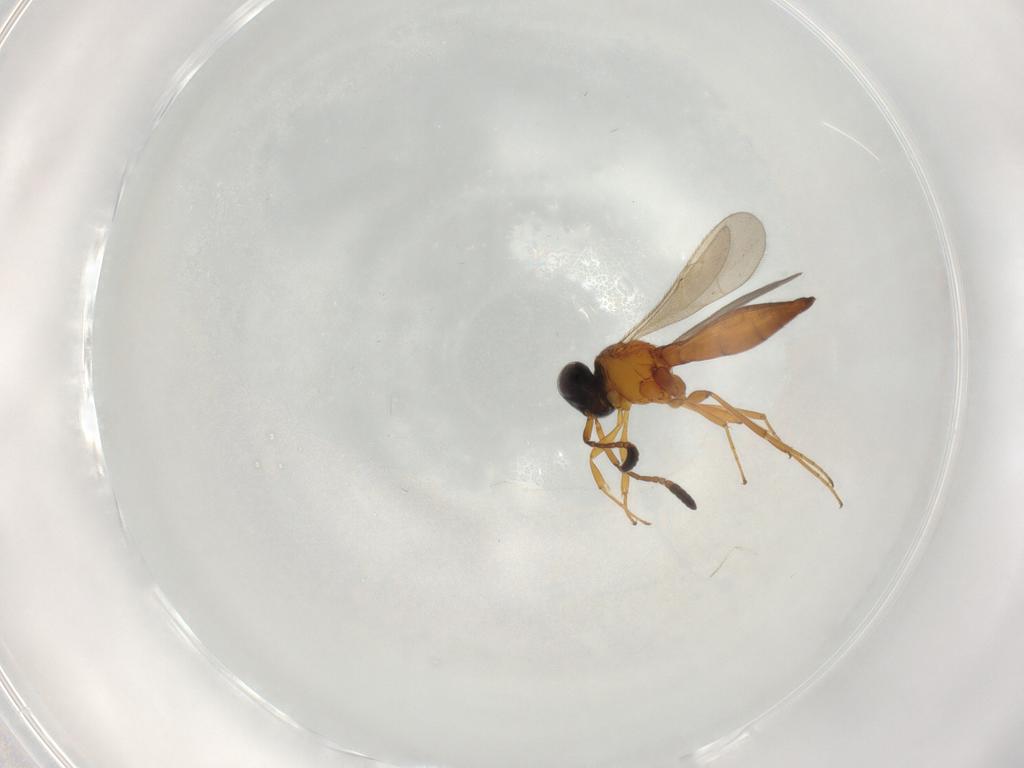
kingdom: Animalia
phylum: Arthropoda
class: Insecta
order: Hymenoptera
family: Scelionidae
